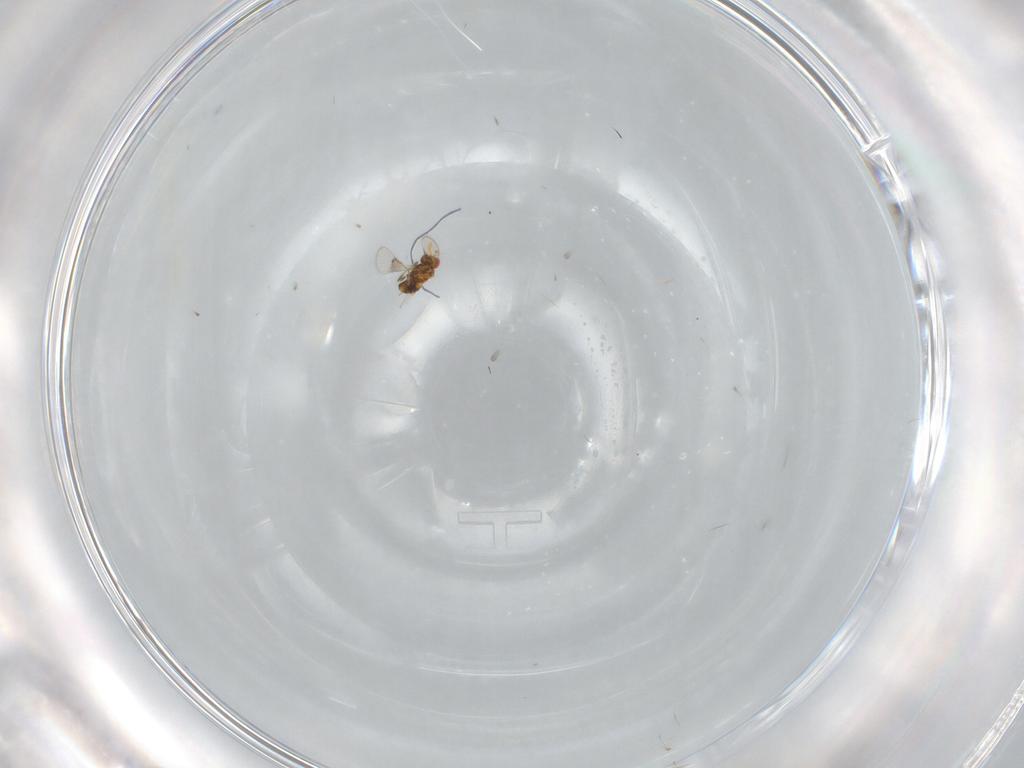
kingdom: Animalia
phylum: Arthropoda
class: Insecta
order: Hymenoptera
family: Trichogrammatidae
